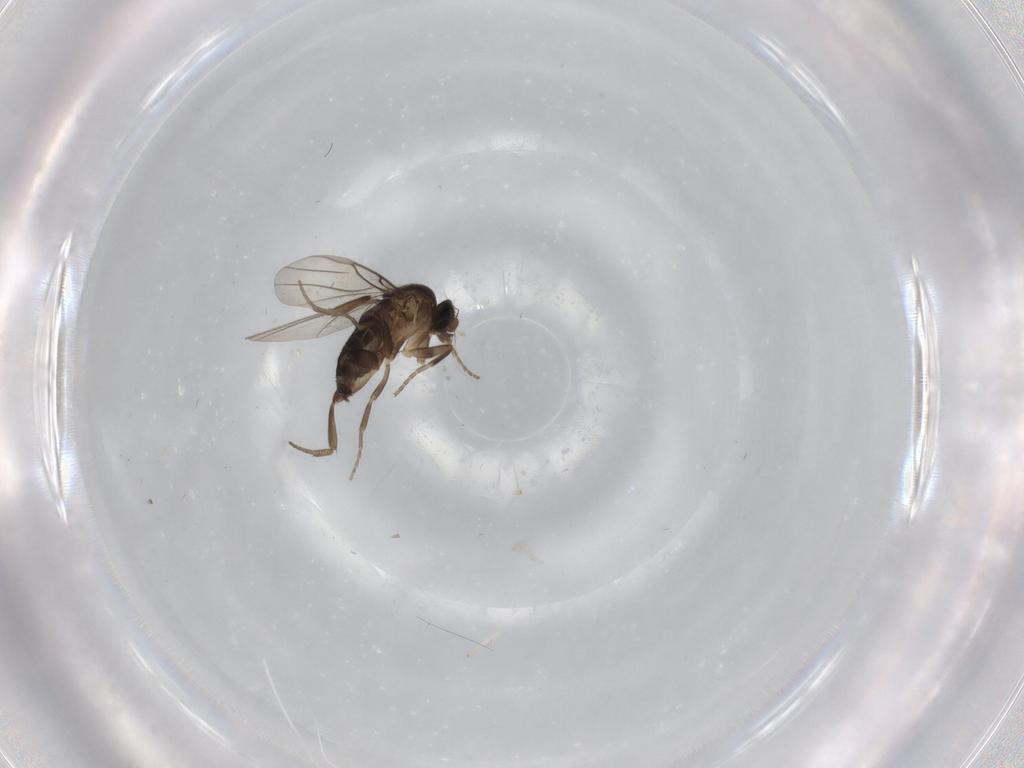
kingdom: Animalia
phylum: Arthropoda
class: Insecta
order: Diptera
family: Phoridae
